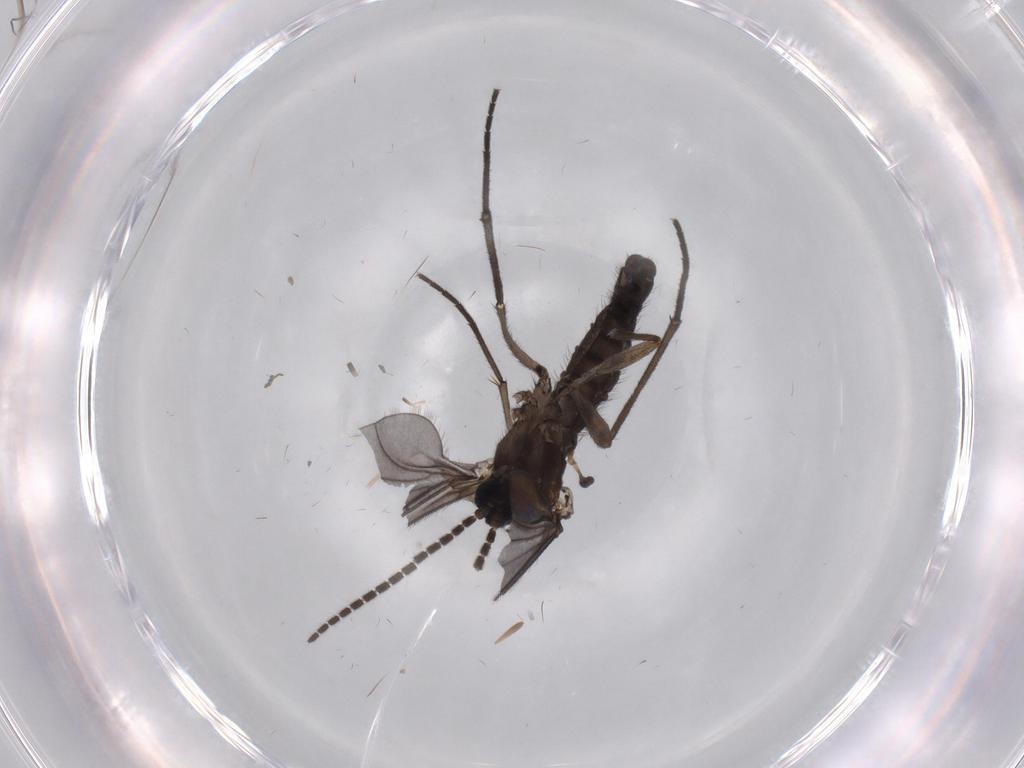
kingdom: Animalia
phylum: Arthropoda
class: Insecta
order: Diptera
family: Sciaridae
